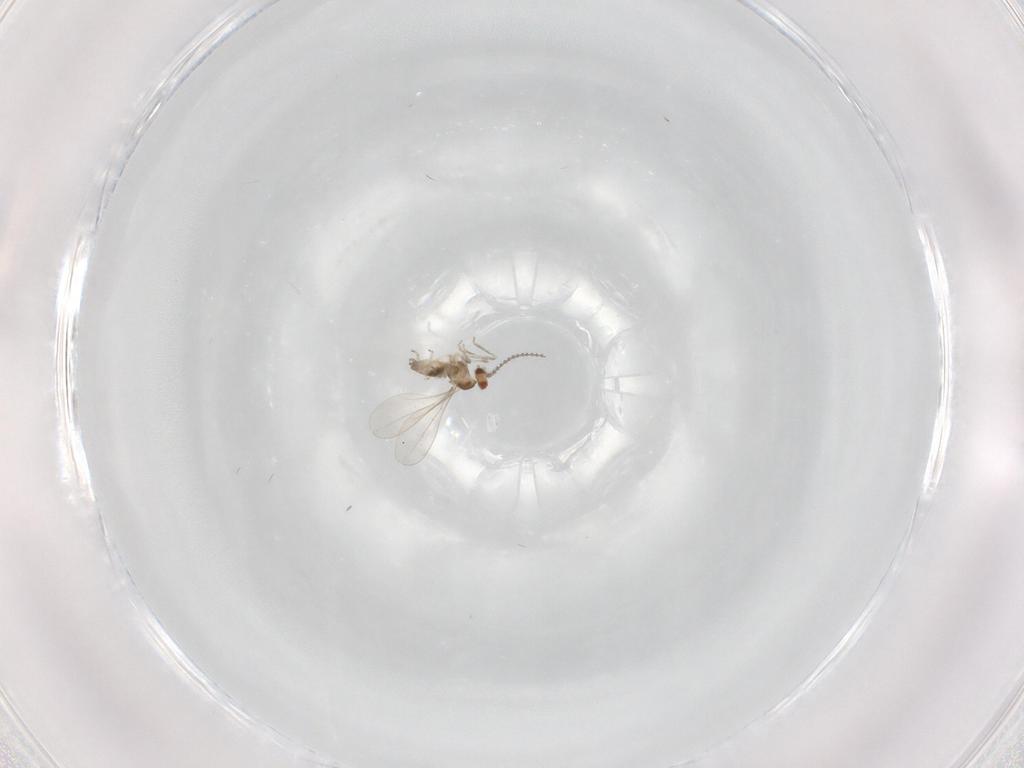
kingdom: Animalia
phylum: Arthropoda
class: Insecta
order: Diptera
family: Cecidomyiidae
